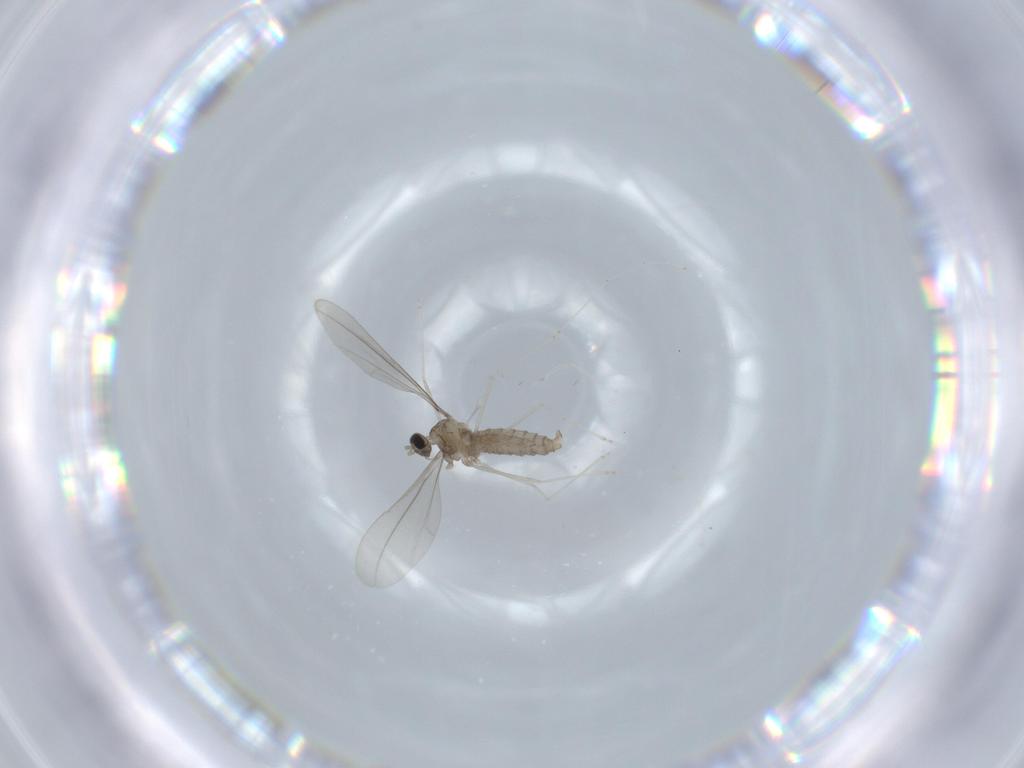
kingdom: Animalia
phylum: Arthropoda
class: Insecta
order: Diptera
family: Cecidomyiidae
